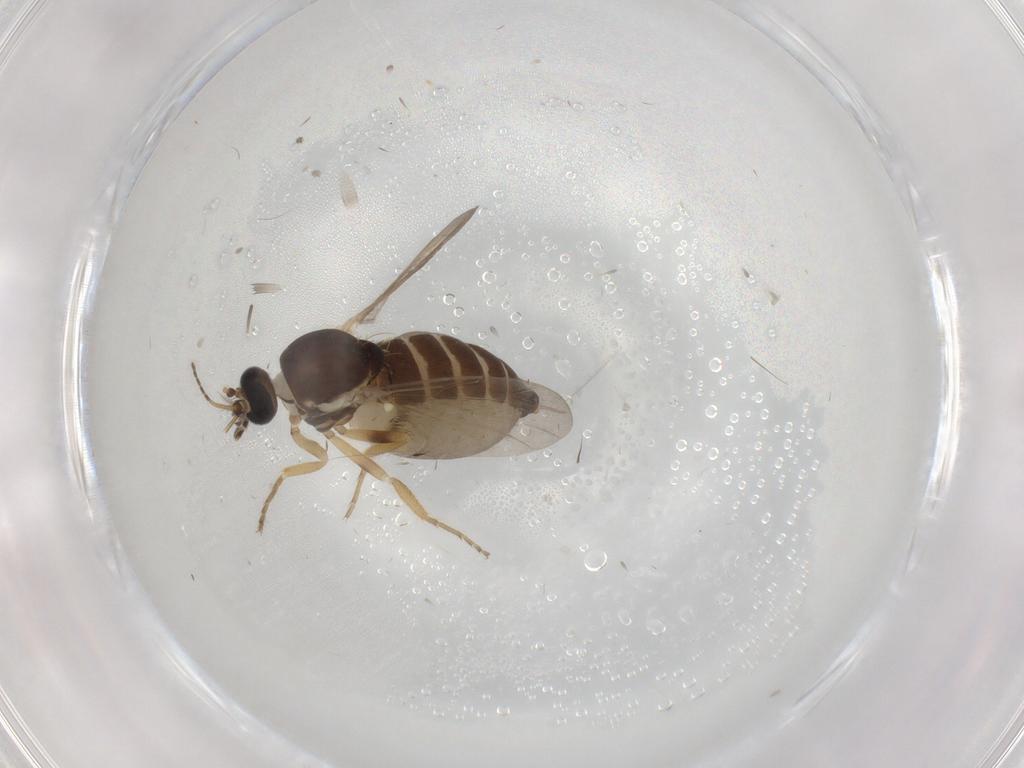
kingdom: Animalia
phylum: Arthropoda
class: Insecta
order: Diptera
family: Ceratopogonidae
